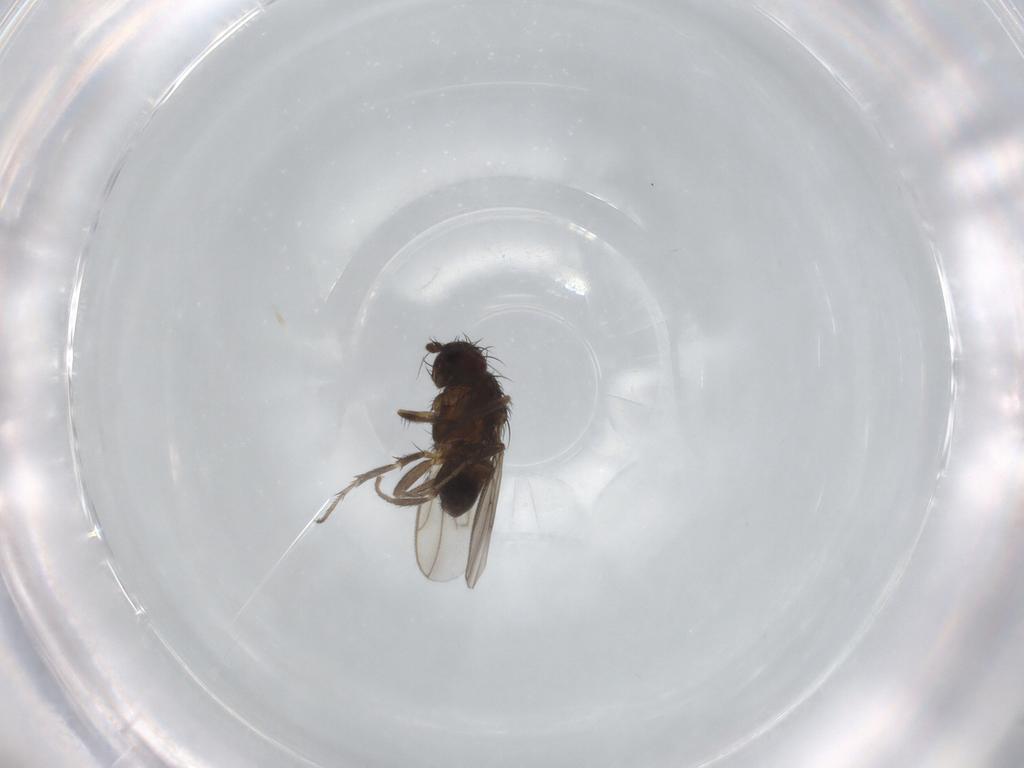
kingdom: Animalia
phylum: Arthropoda
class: Insecta
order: Diptera
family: Sphaeroceridae
